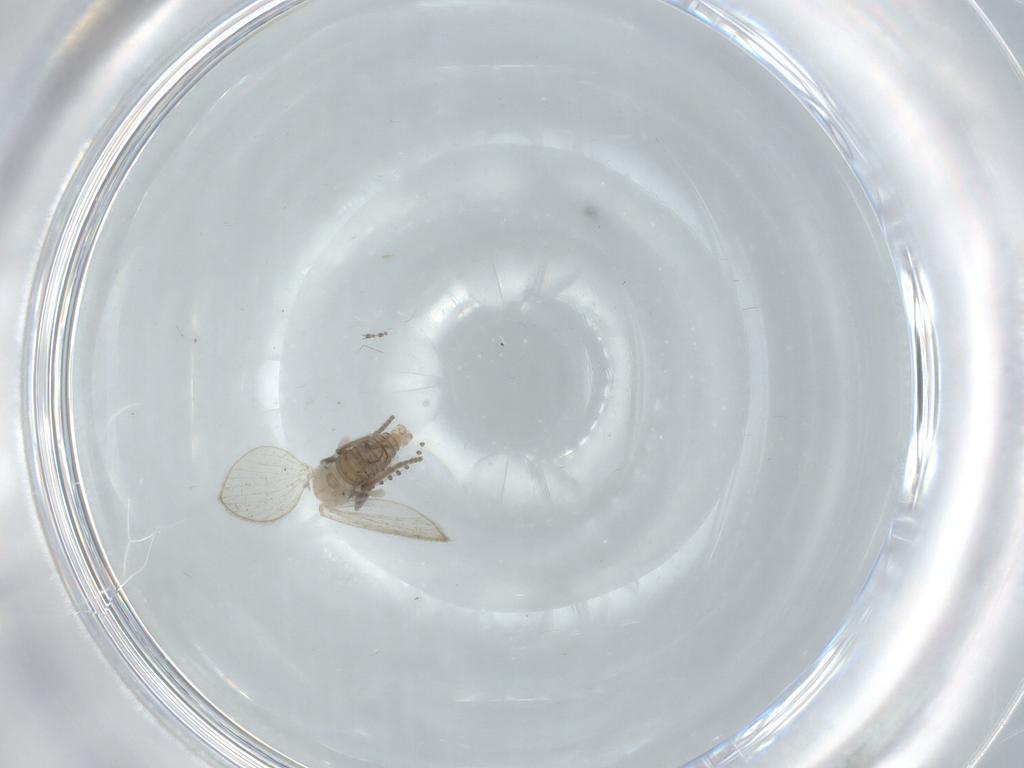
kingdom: Animalia
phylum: Arthropoda
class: Insecta
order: Diptera
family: Psychodidae
